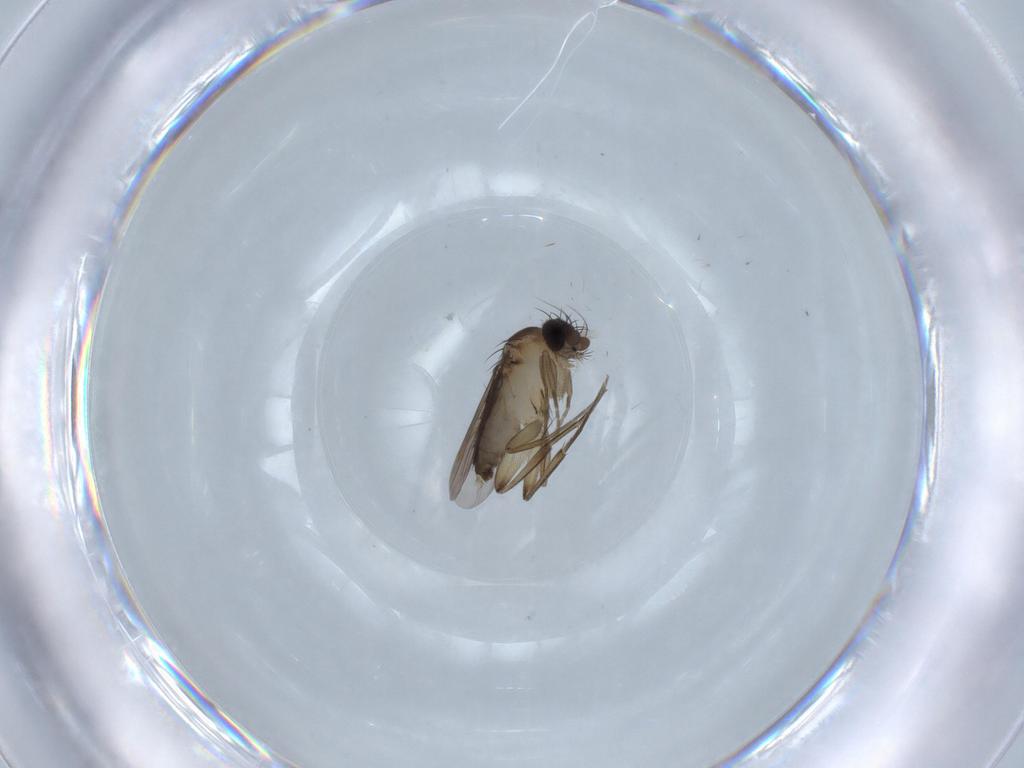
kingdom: Animalia
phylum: Arthropoda
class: Insecta
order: Diptera
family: Phoridae
